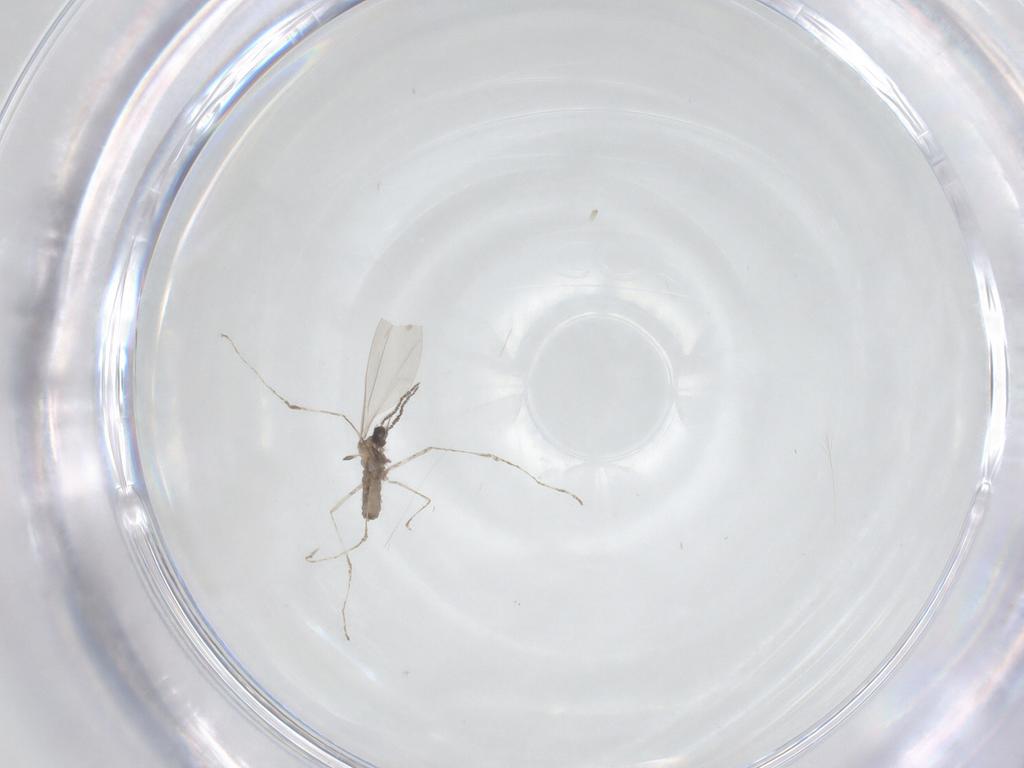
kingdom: Animalia
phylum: Arthropoda
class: Insecta
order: Diptera
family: Cecidomyiidae
